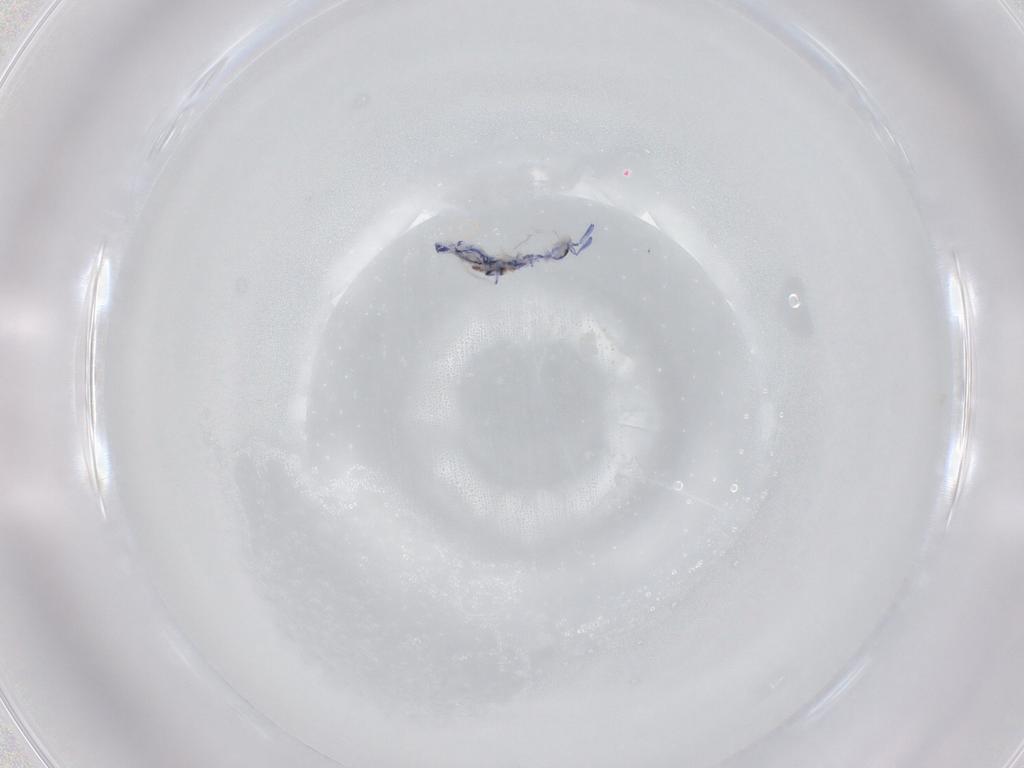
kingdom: Animalia
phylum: Arthropoda
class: Collembola
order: Entomobryomorpha
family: Entomobryidae
